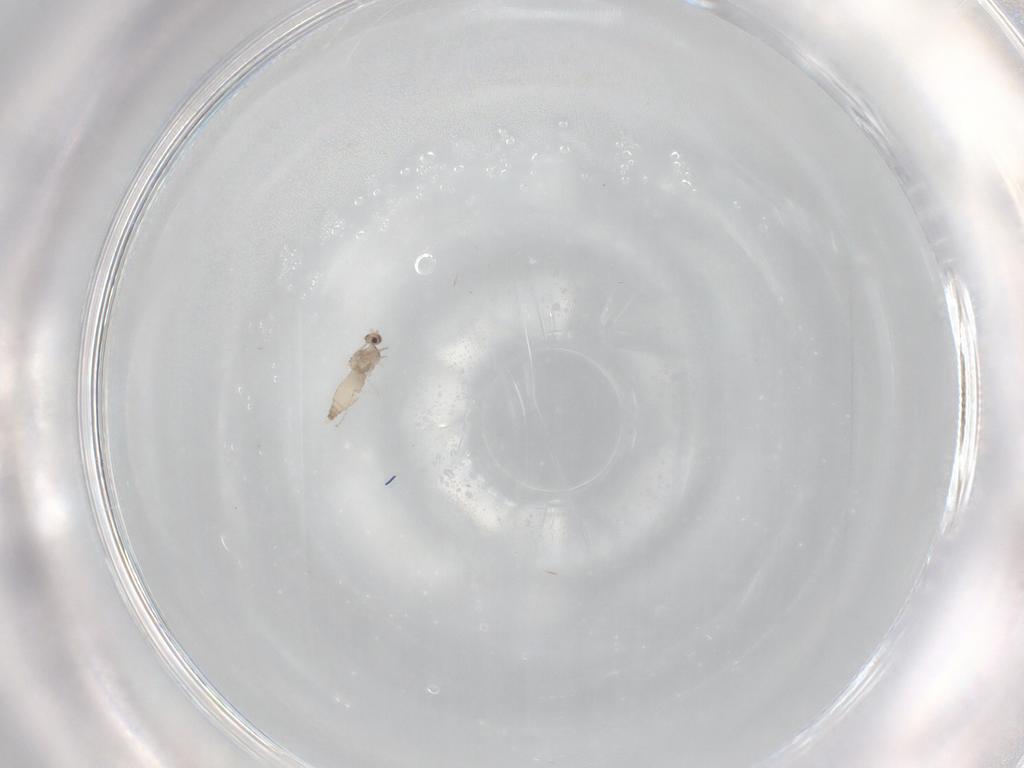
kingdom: Animalia
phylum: Arthropoda
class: Insecta
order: Diptera
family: Cecidomyiidae
